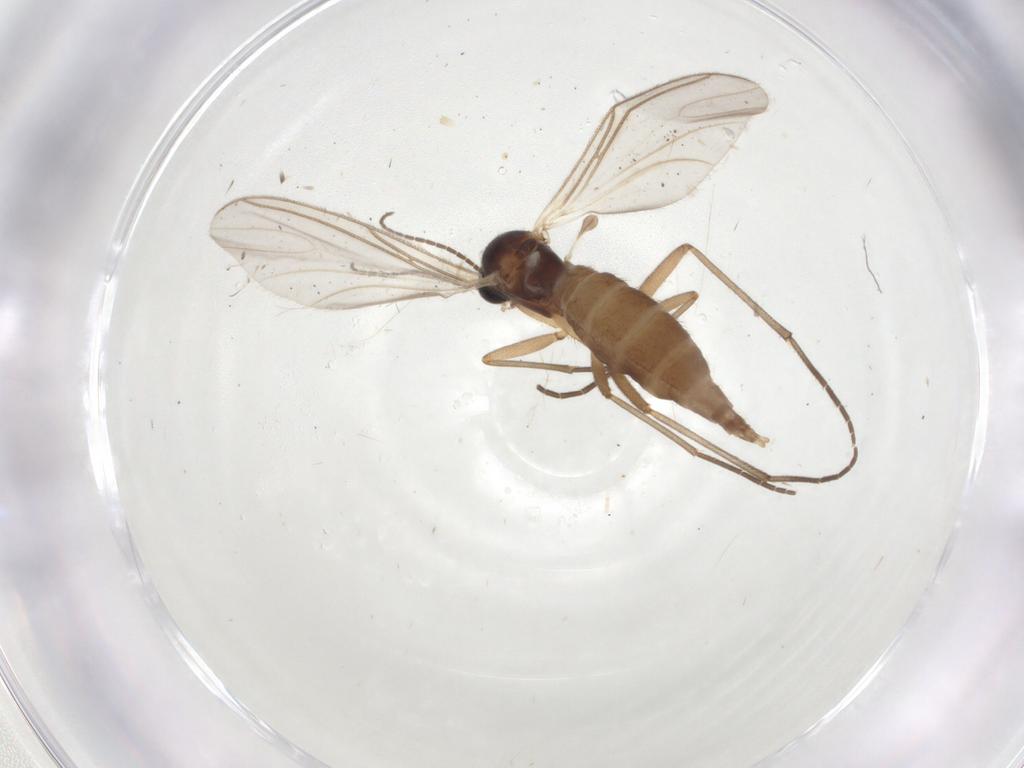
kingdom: Animalia
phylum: Arthropoda
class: Insecta
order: Diptera
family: Sciaridae
